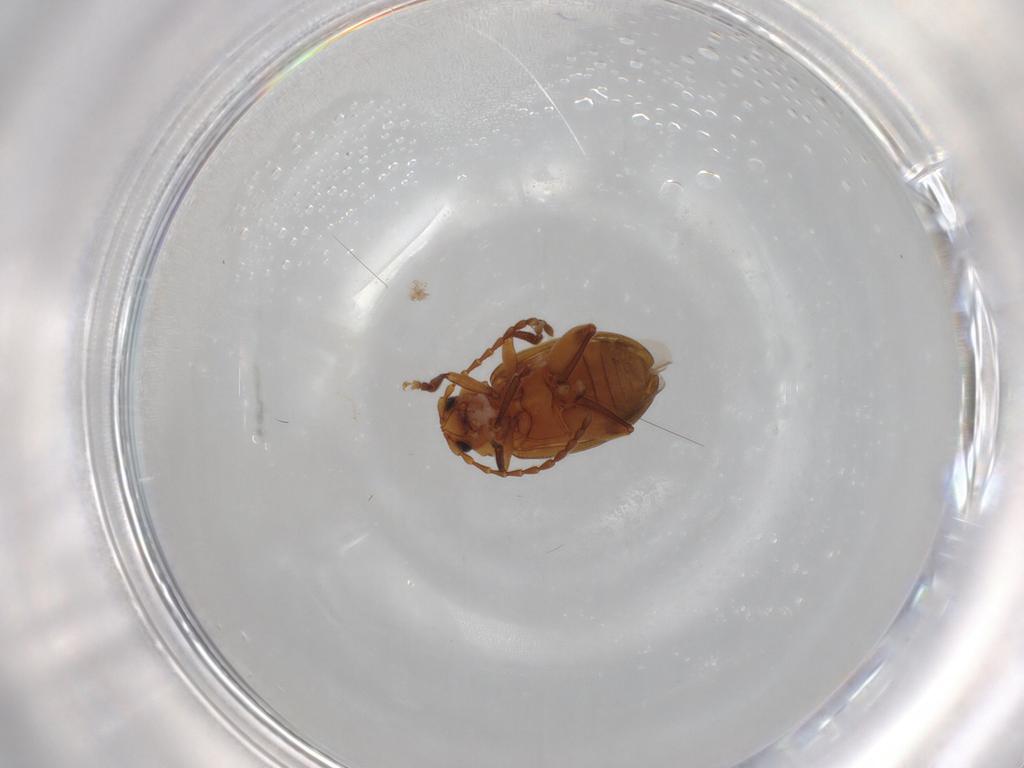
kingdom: Animalia
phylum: Arthropoda
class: Insecta
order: Coleoptera
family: Chrysomelidae
